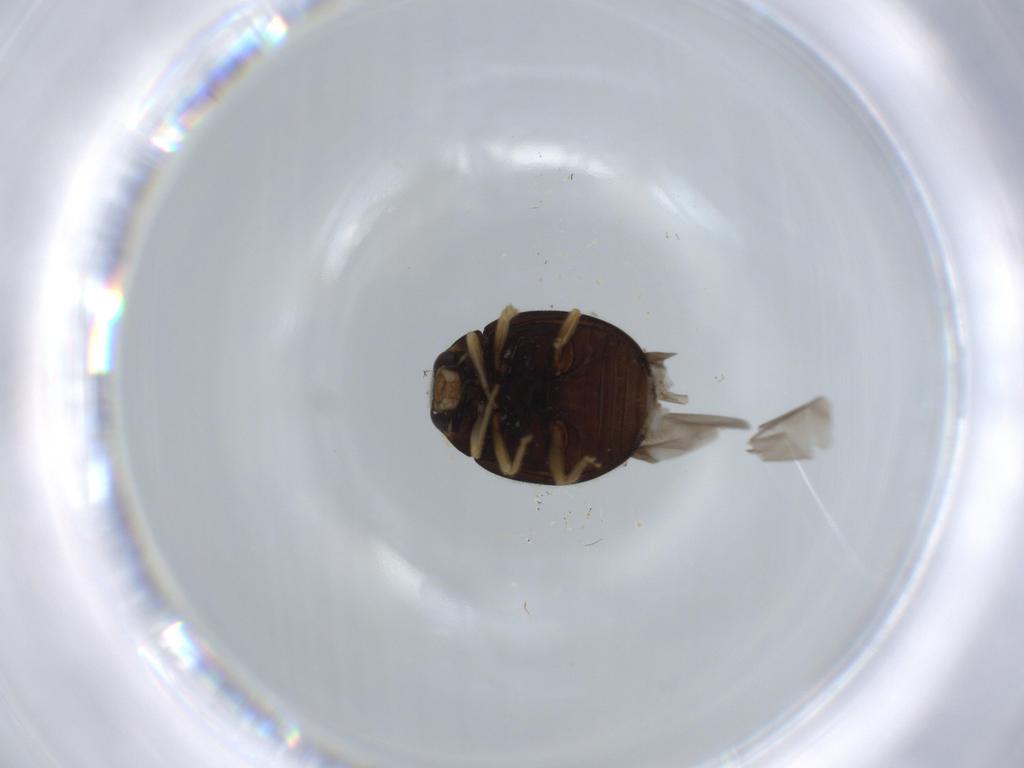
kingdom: Animalia
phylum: Arthropoda
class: Insecta
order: Coleoptera
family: Coccinellidae
